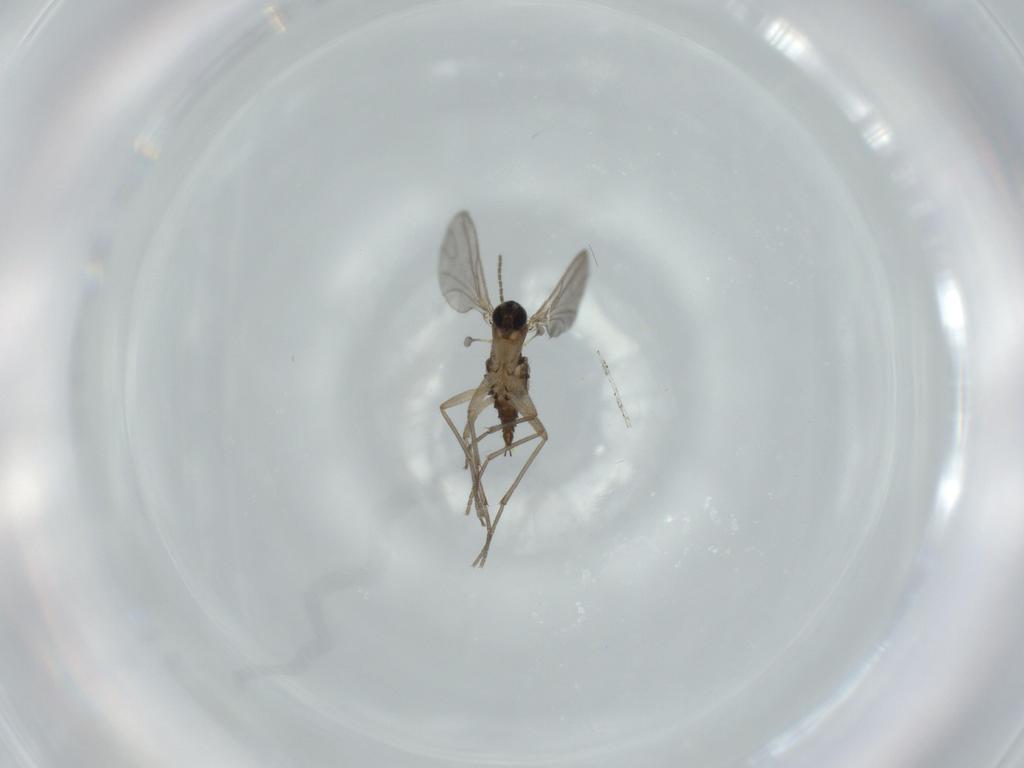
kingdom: Animalia
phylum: Arthropoda
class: Insecta
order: Diptera
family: Sciaridae
